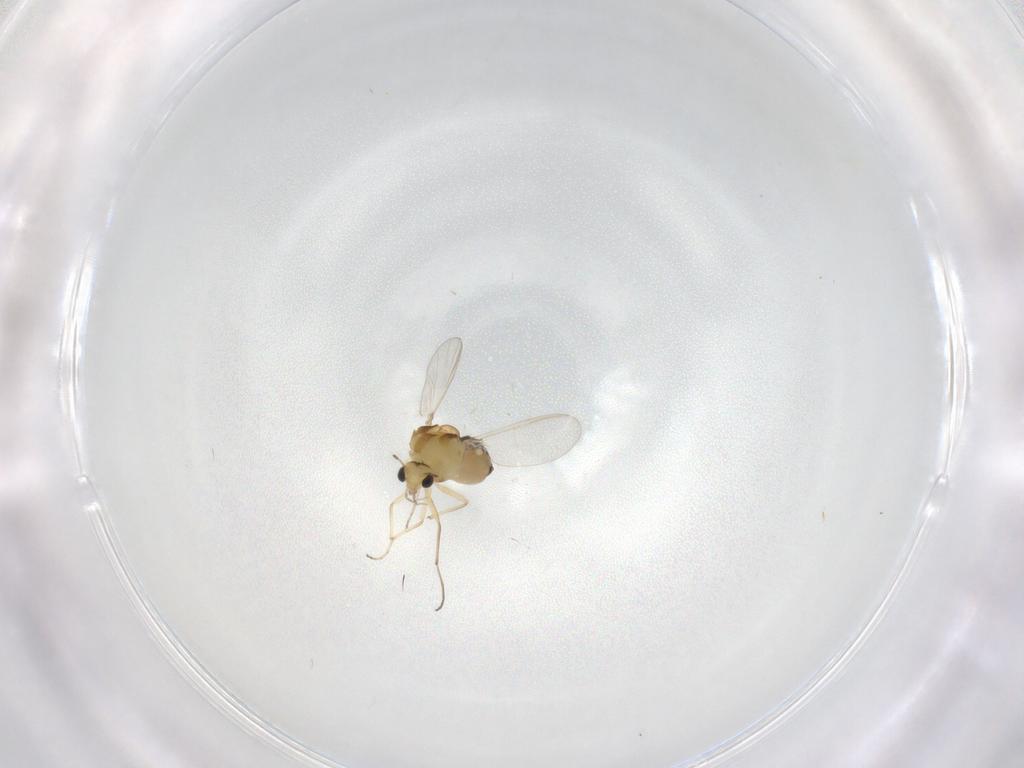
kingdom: Animalia
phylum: Arthropoda
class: Insecta
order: Diptera
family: Chironomidae
